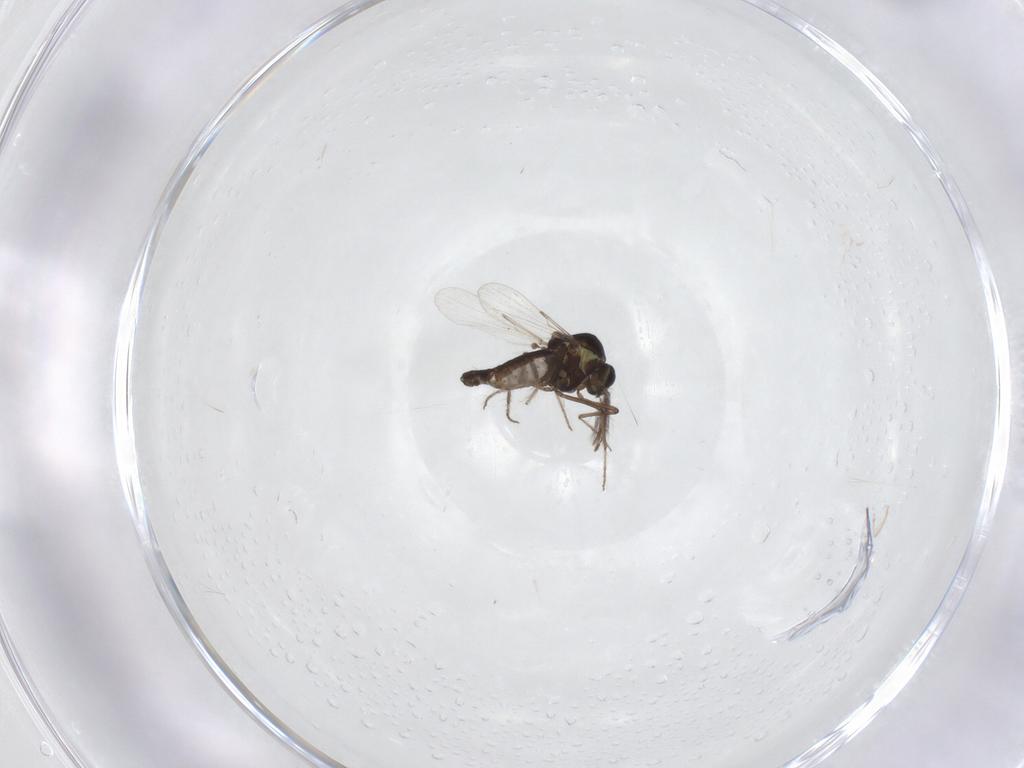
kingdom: Animalia
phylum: Arthropoda
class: Insecta
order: Diptera
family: Ceratopogonidae
